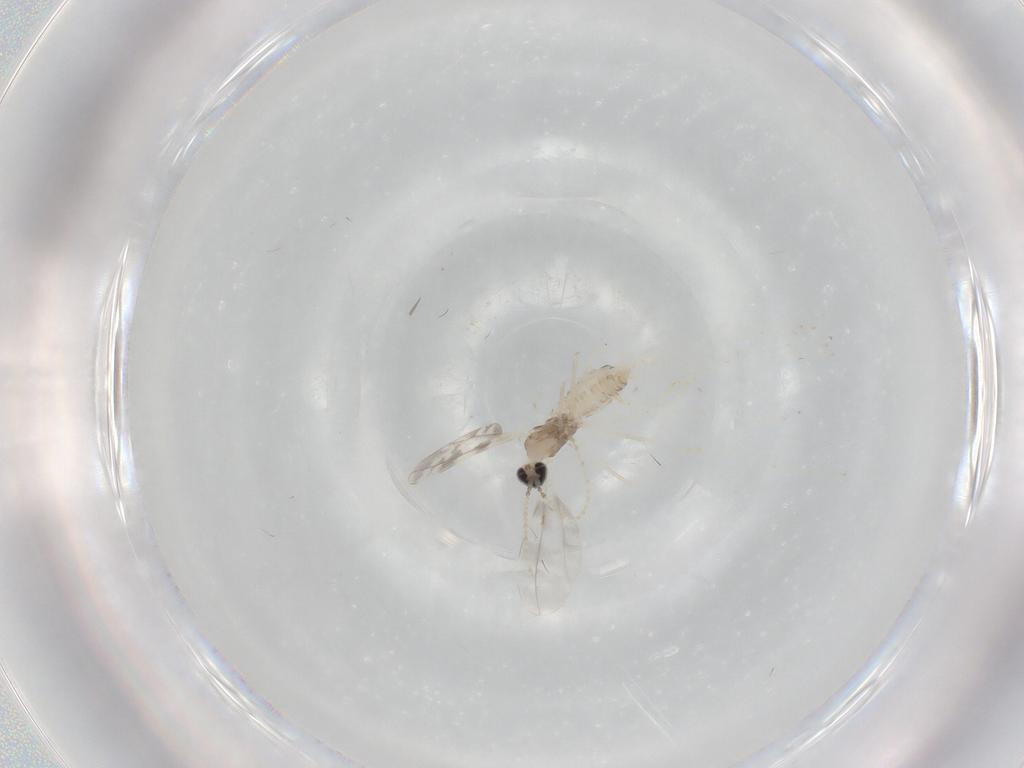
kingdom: Animalia
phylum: Arthropoda
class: Insecta
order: Diptera
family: Cecidomyiidae
